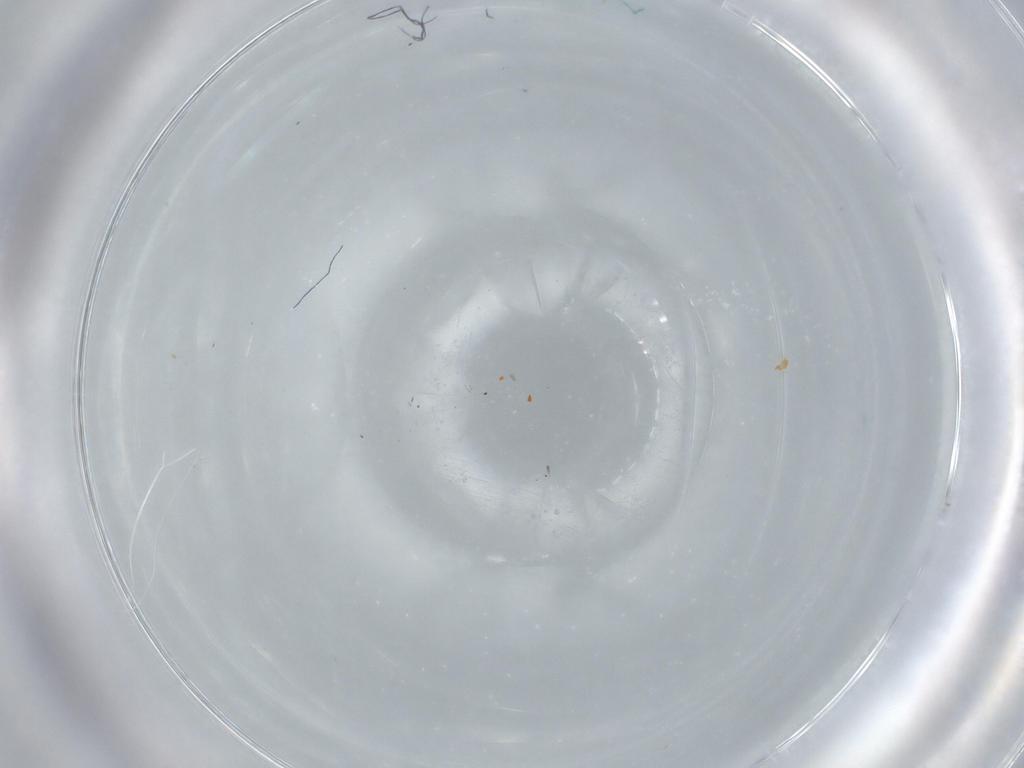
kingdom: Animalia
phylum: Arthropoda
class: Insecta
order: Diptera
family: Chironomidae
